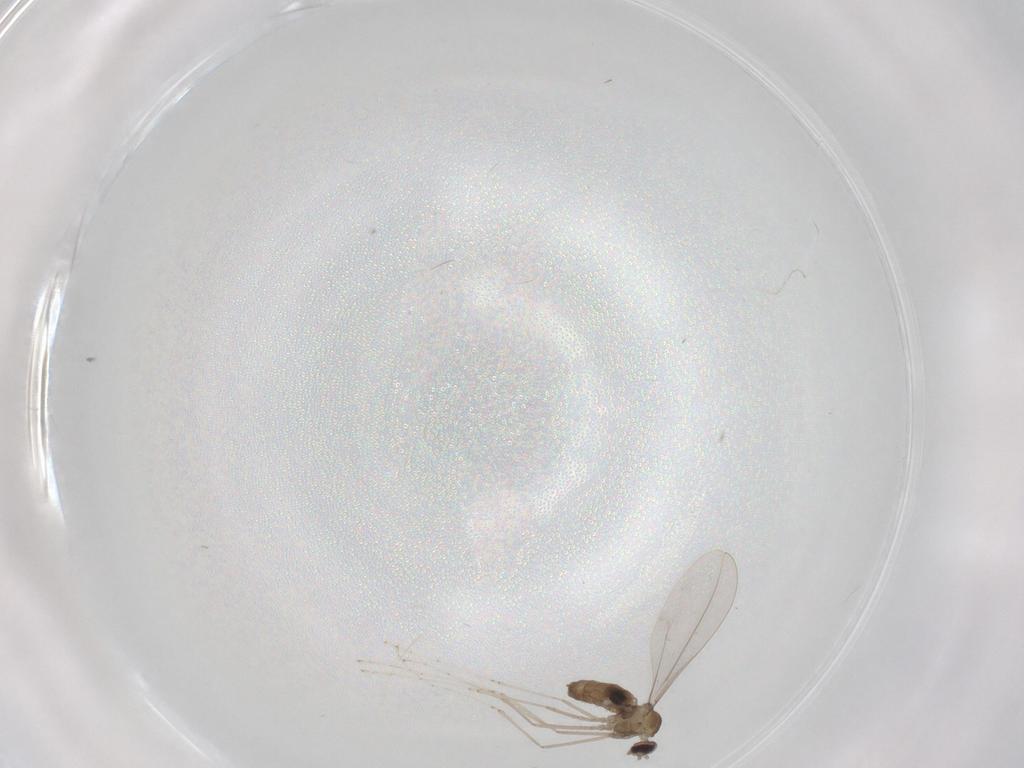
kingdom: Animalia
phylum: Arthropoda
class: Insecta
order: Diptera
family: Cecidomyiidae
